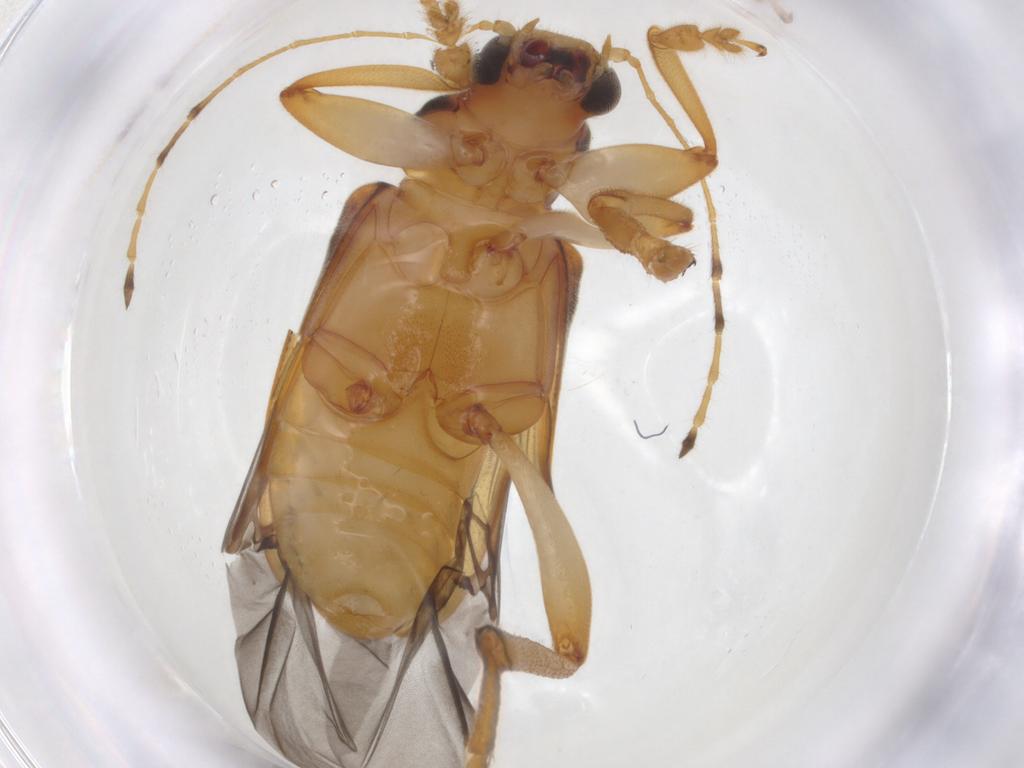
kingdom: Animalia
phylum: Arthropoda
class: Insecta
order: Coleoptera
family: Chrysomelidae
